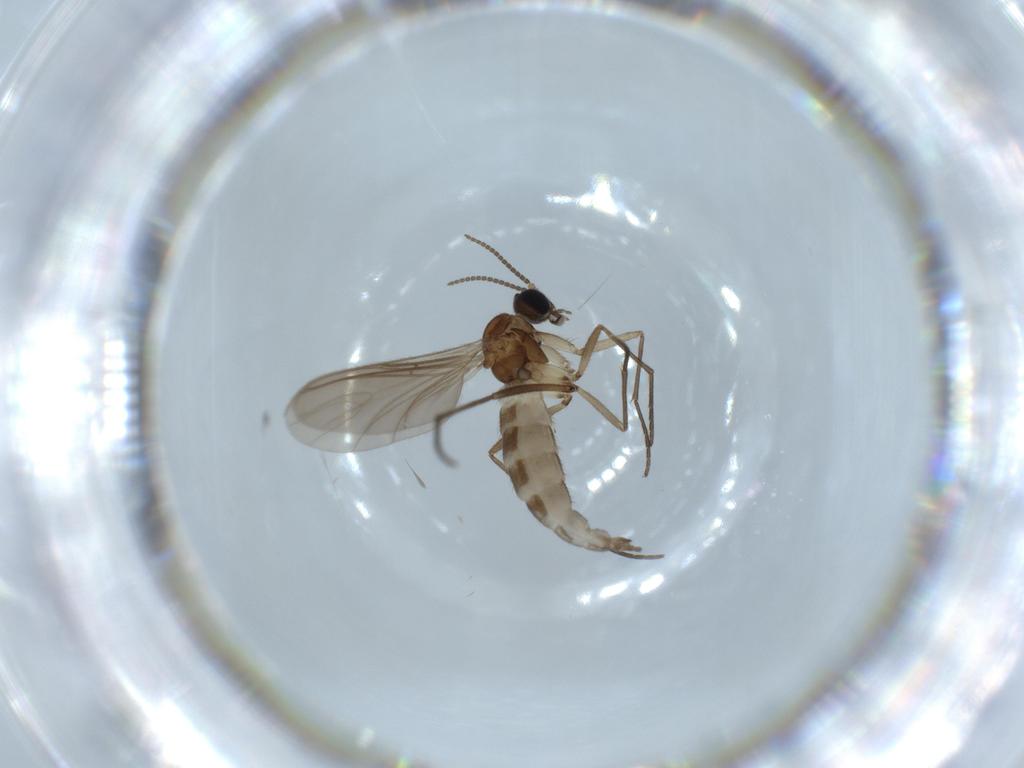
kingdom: Animalia
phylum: Arthropoda
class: Insecta
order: Diptera
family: Sciaridae
